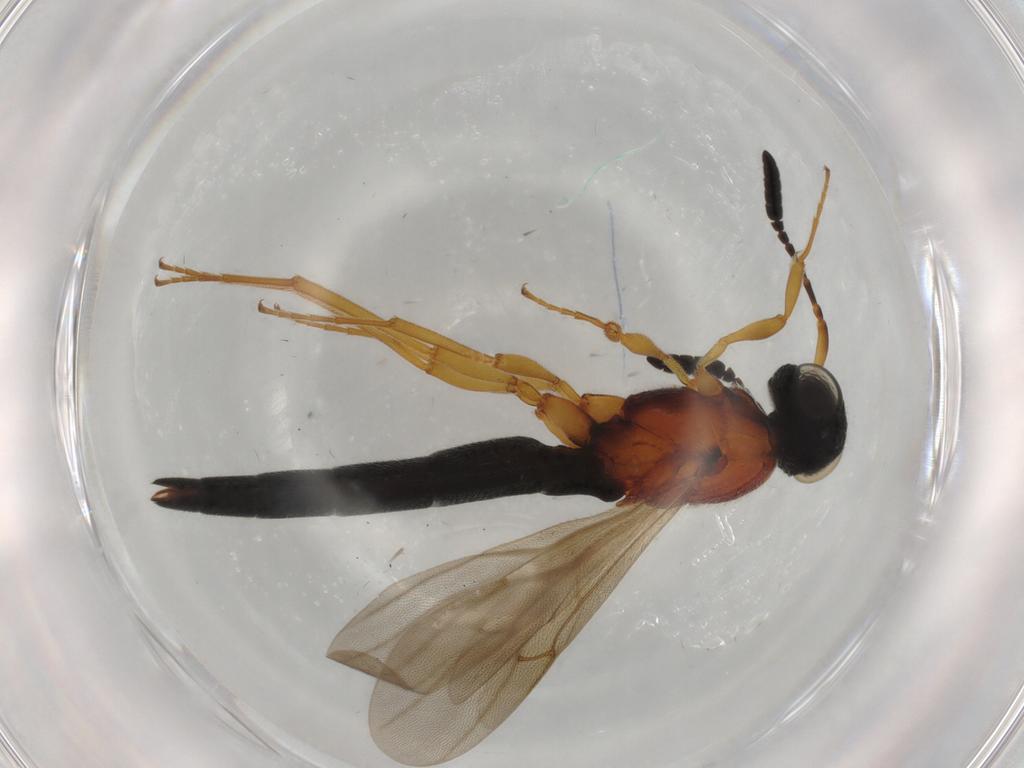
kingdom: Animalia
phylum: Arthropoda
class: Insecta
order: Hymenoptera
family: Scelionidae
